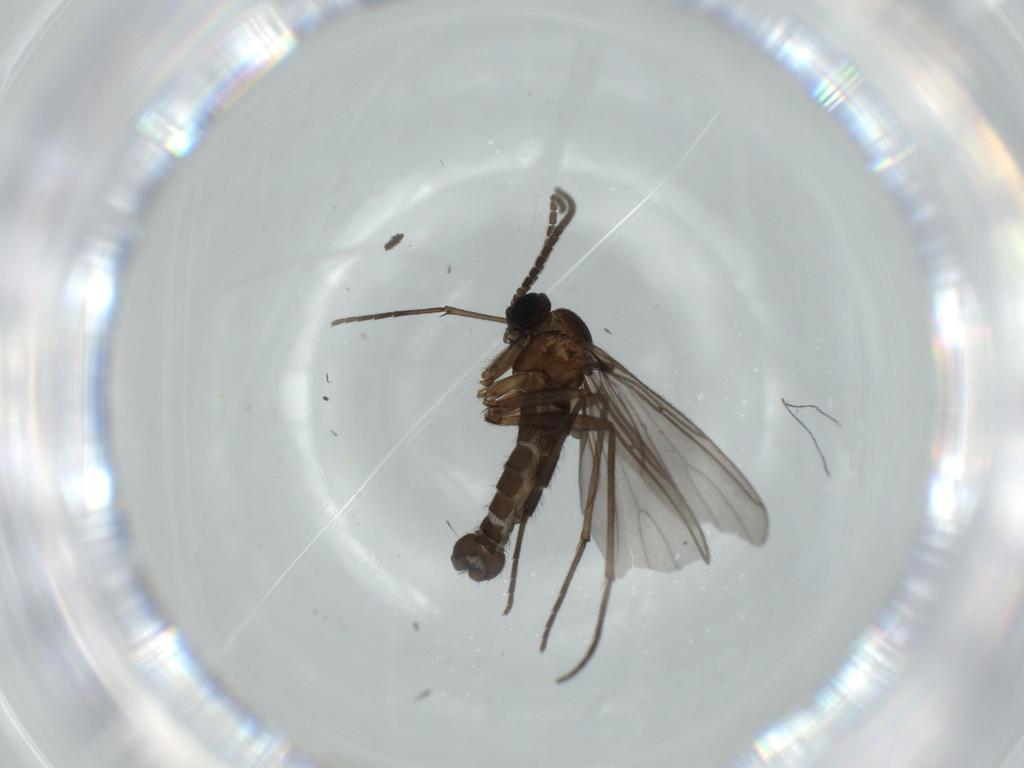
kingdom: Animalia
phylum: Arthropoda
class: Insecta
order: Diptera
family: Sciaridae
